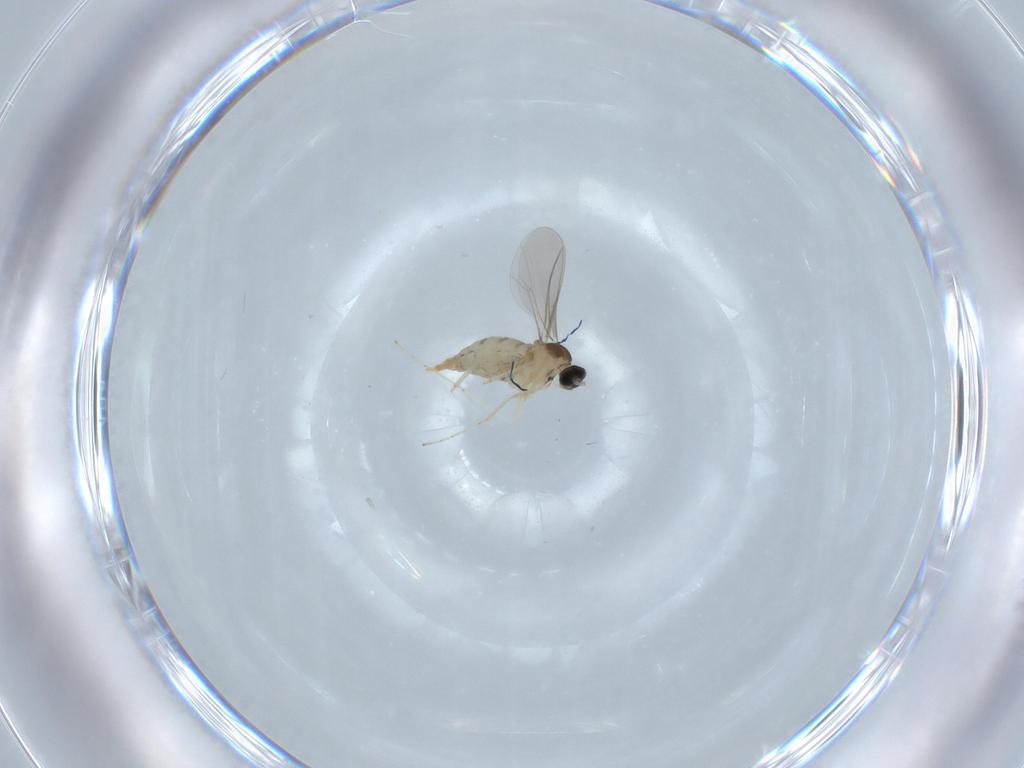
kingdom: Animalia
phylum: Arthropoda
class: Insecta
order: Diptera
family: Cecidomyiidae
